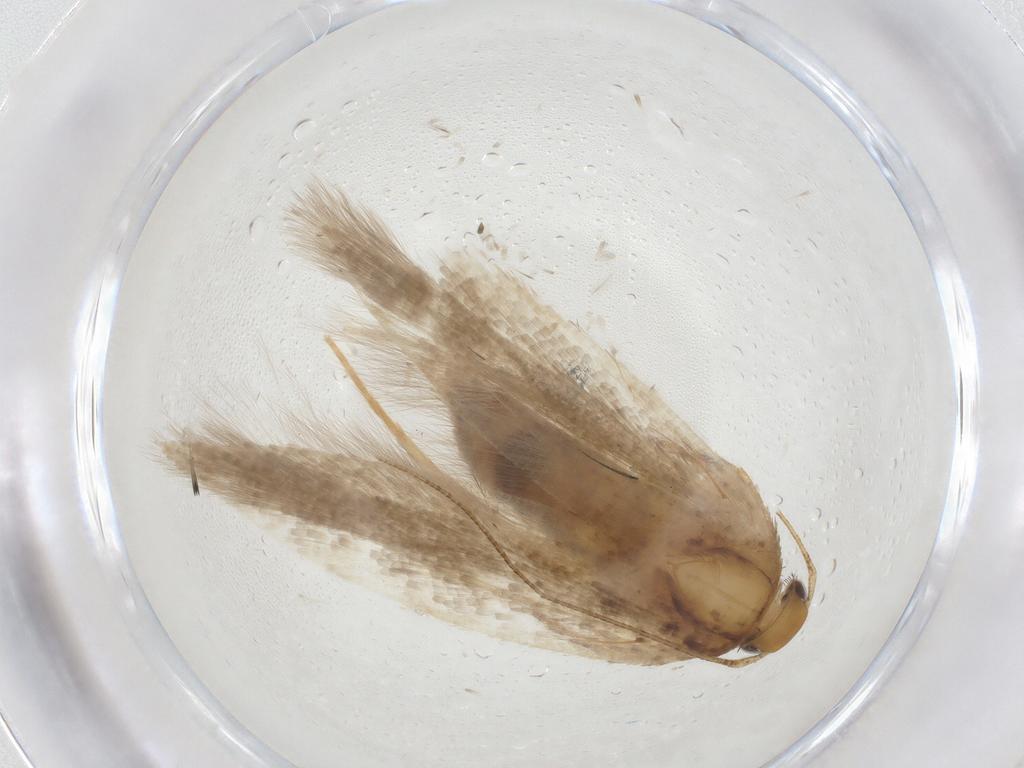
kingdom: Animalia
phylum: Arthropoda
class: Insecta
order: Lepidoptera
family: Gelechiidae
